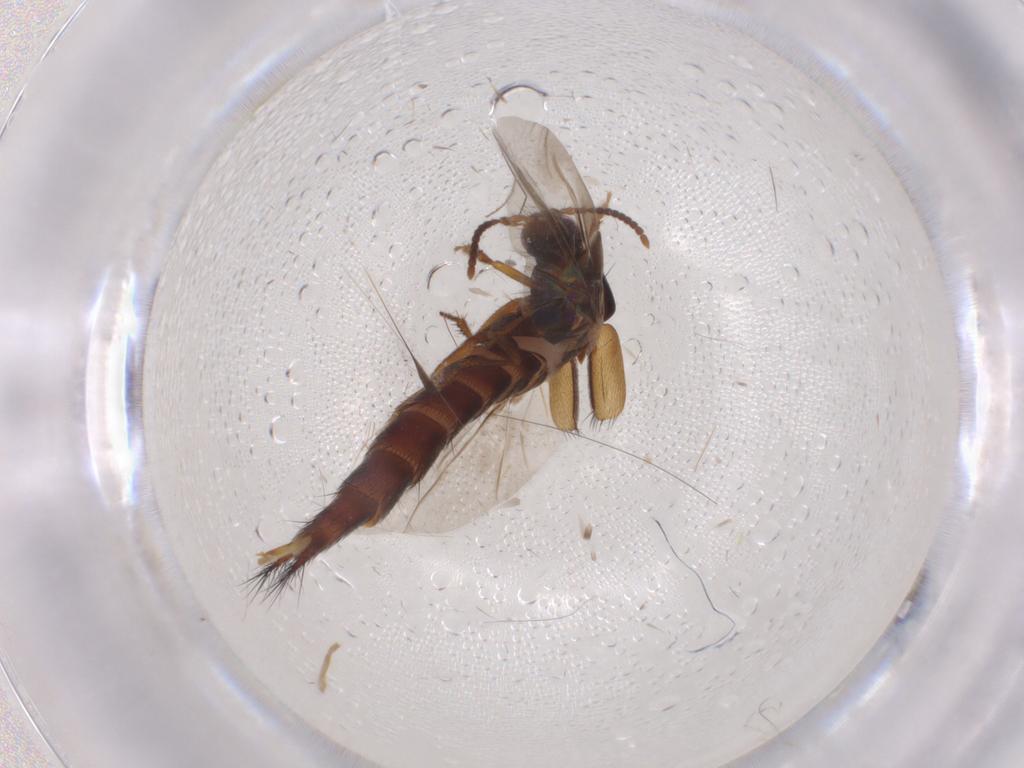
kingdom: Animalia
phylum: Arthropoda
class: Insecta
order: Coleoptera
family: Staphylinidae
